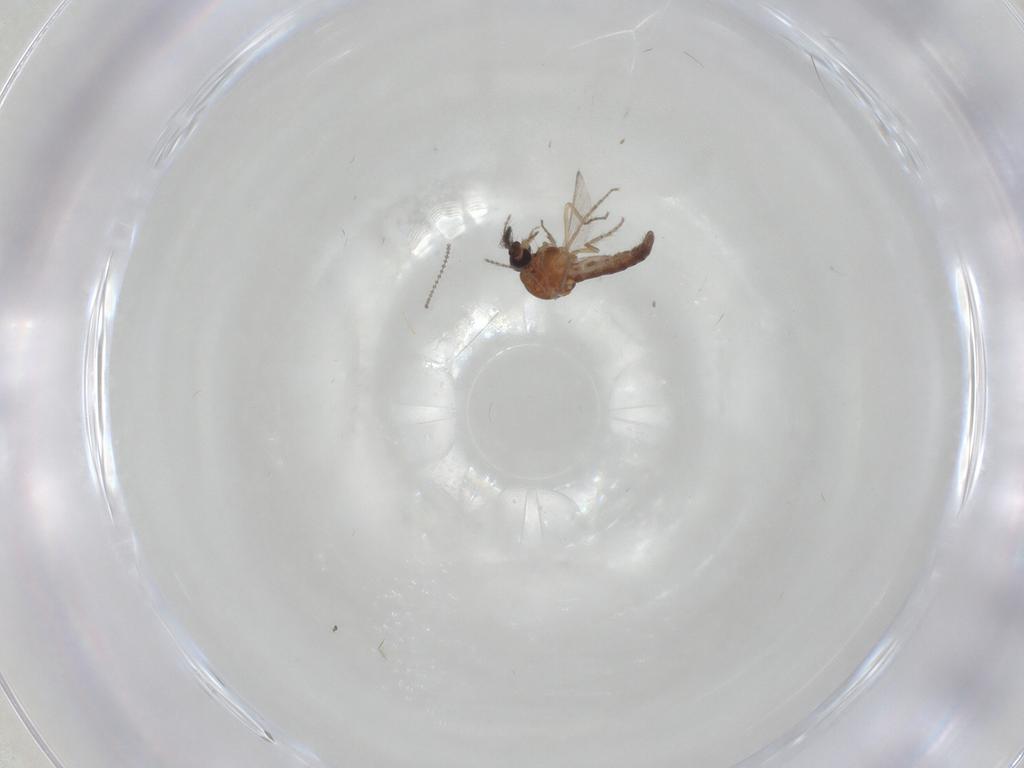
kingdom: Animalia
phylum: Arthropoda
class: Insecta
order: Diptera
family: Ceratopogonidae
